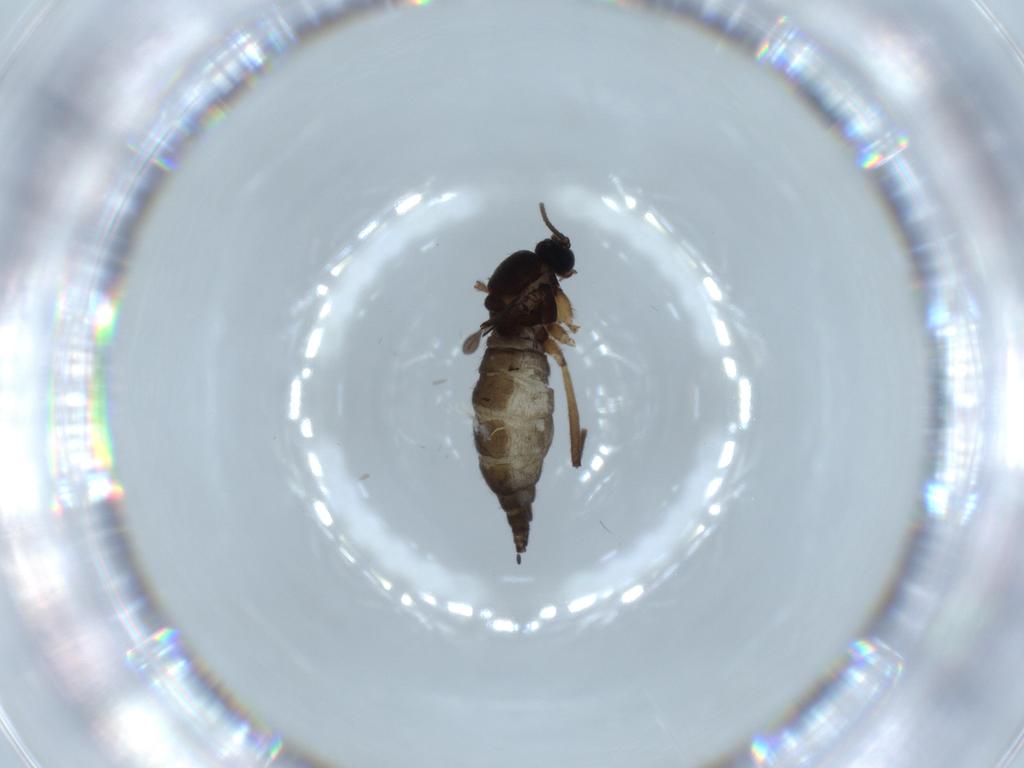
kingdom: Animalia
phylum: Arthropoda
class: Insecta
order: Diptera
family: Sciaridae
